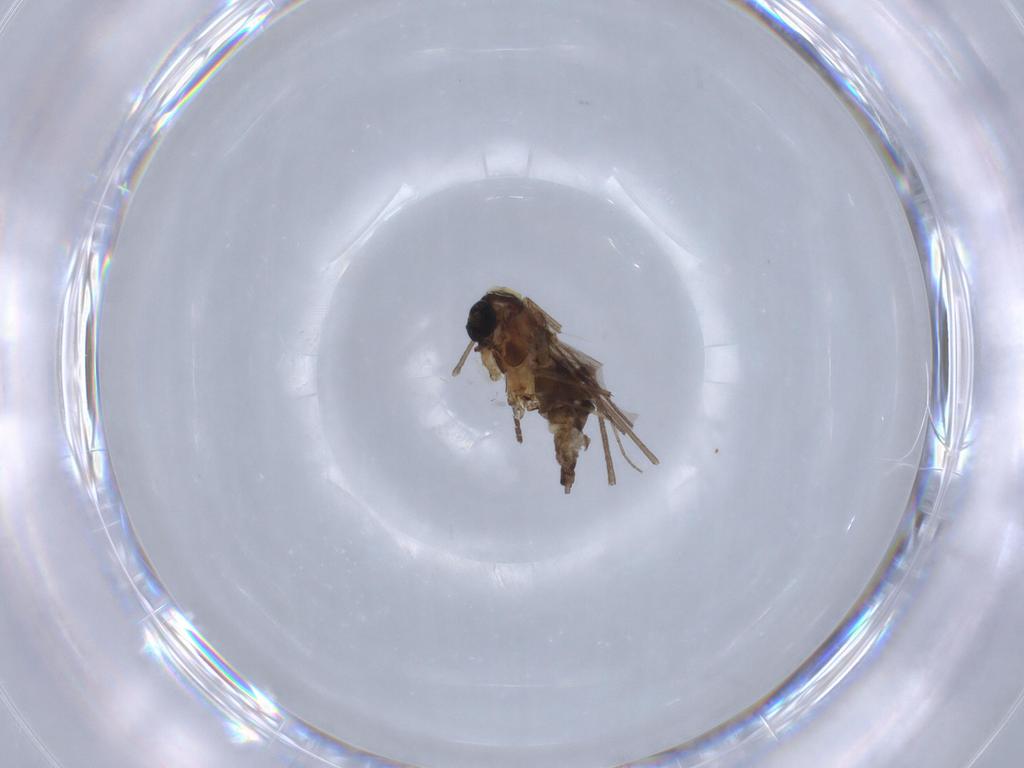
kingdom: Animalia
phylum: Arthropoda
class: Insecta
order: Diptera
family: Sciaridae
